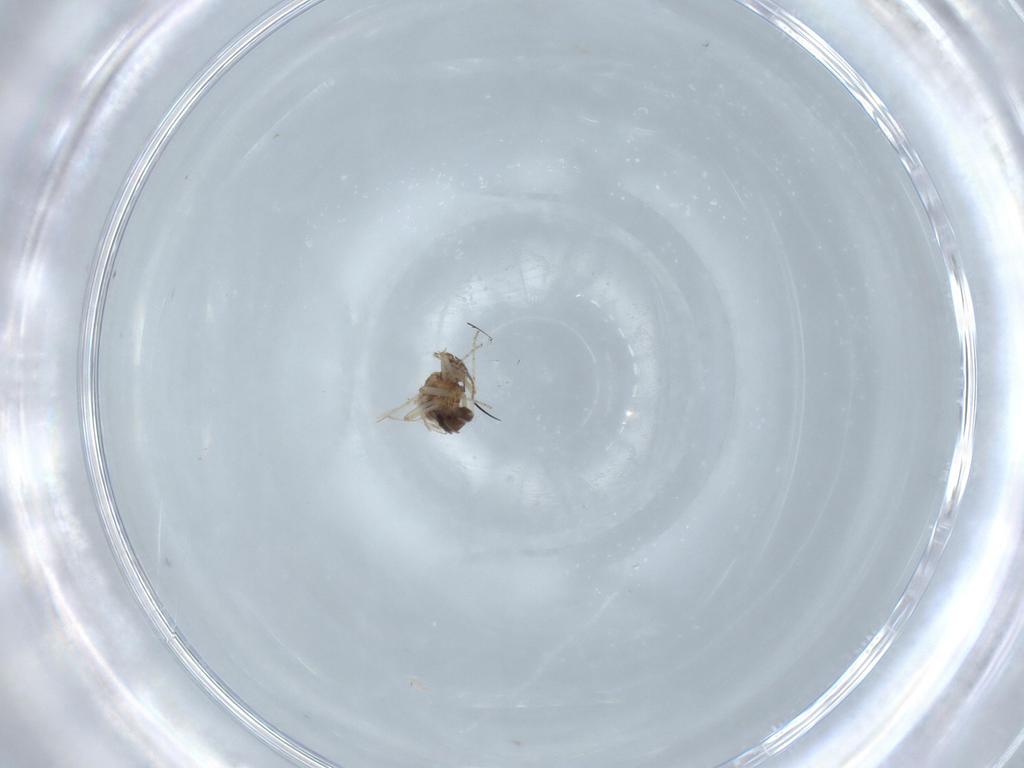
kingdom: Animalia
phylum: Arthropoda
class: Insecta
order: Diptera
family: Ceratopogonidae
